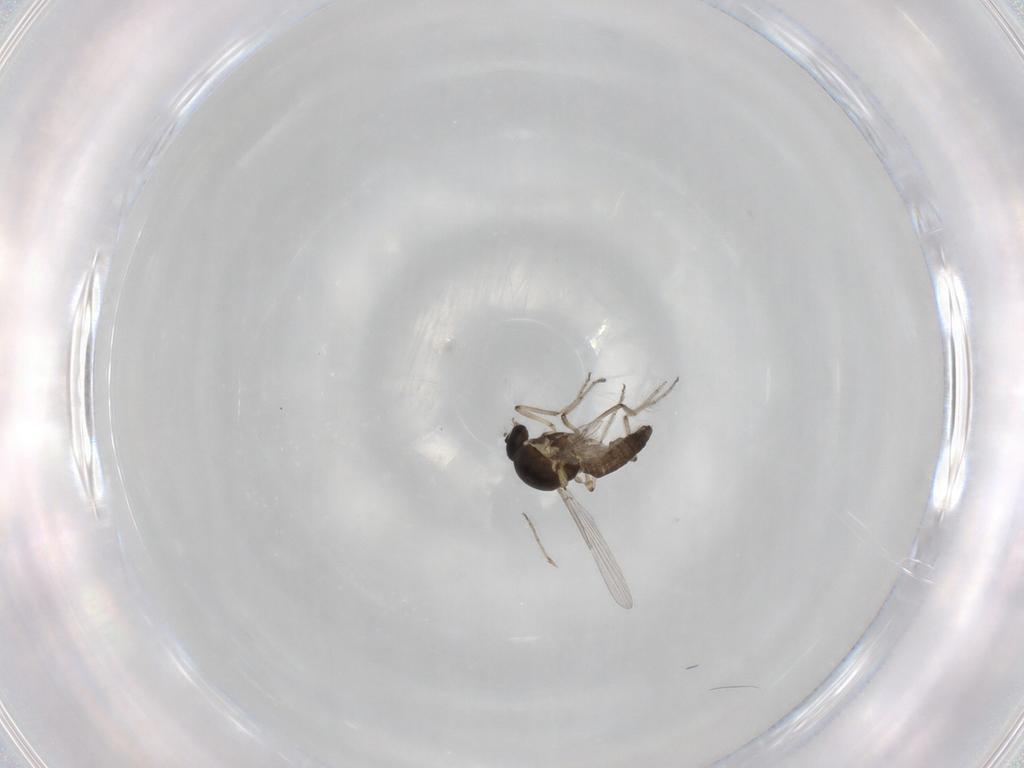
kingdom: Animalia
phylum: Arthropoda
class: Insecta
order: Diptera
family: Ceratopogonidae
